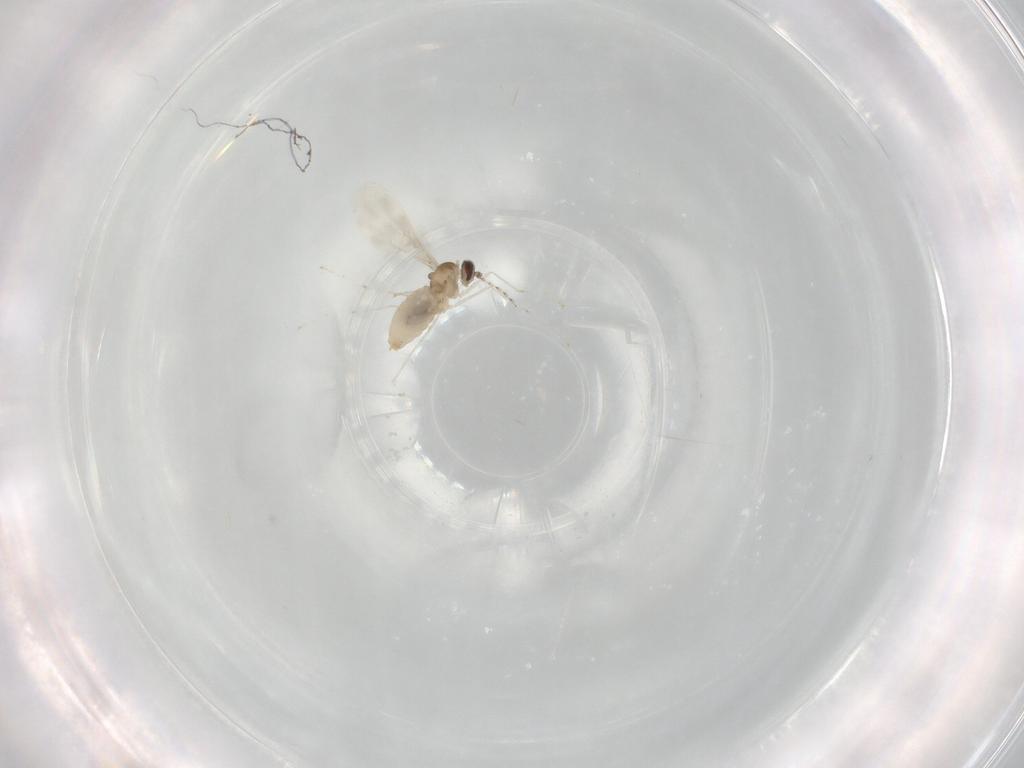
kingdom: Animalia
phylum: Arthropoda
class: Insecta
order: Diptera
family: Cecidomyiidae
